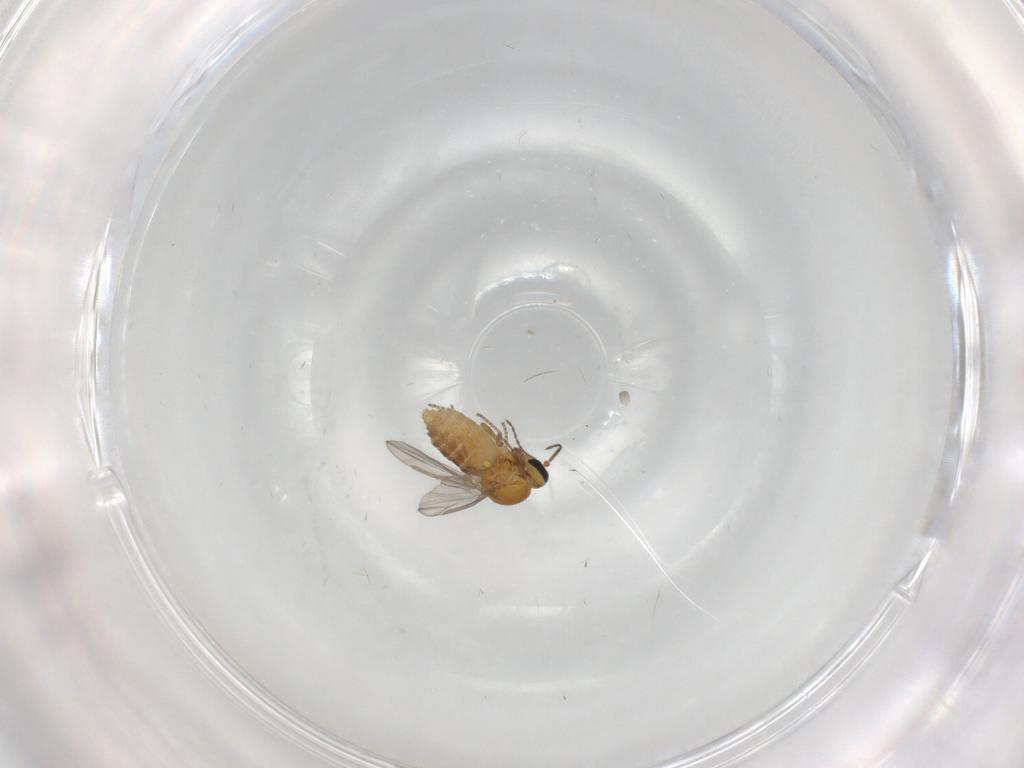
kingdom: Animalia
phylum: Arthropoda
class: Insecta
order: Diptera
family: Ceratopogonidae
